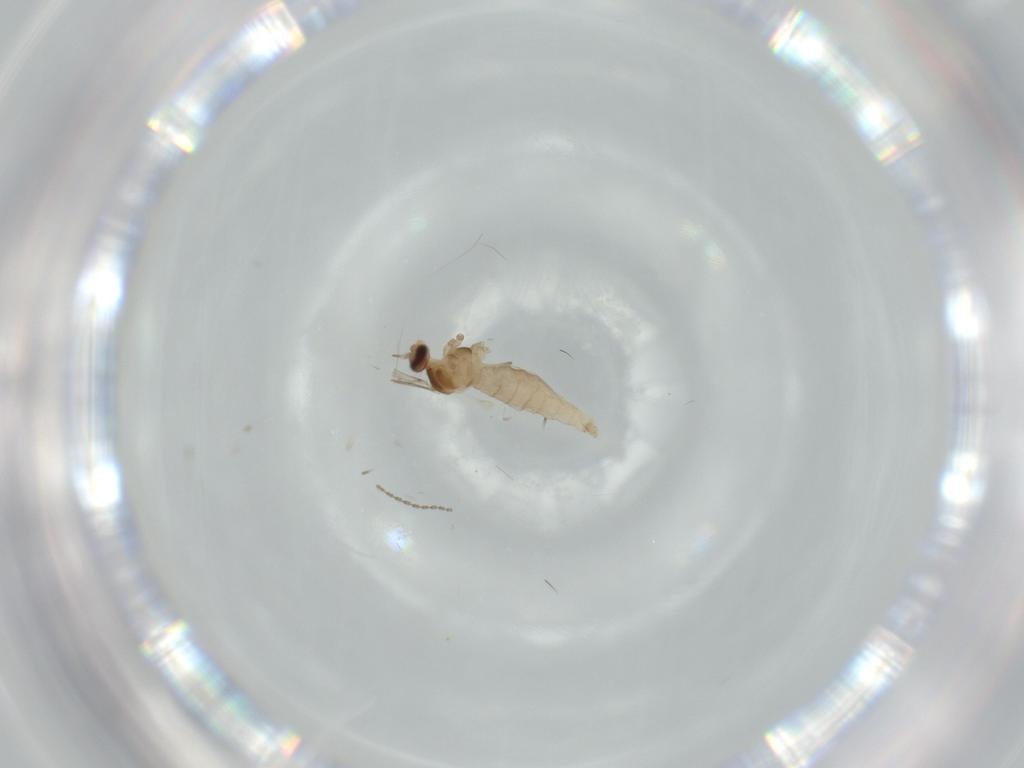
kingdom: Animalia
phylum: Arthropoda
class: Insecta
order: Diptera
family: Cecidomyiidae
